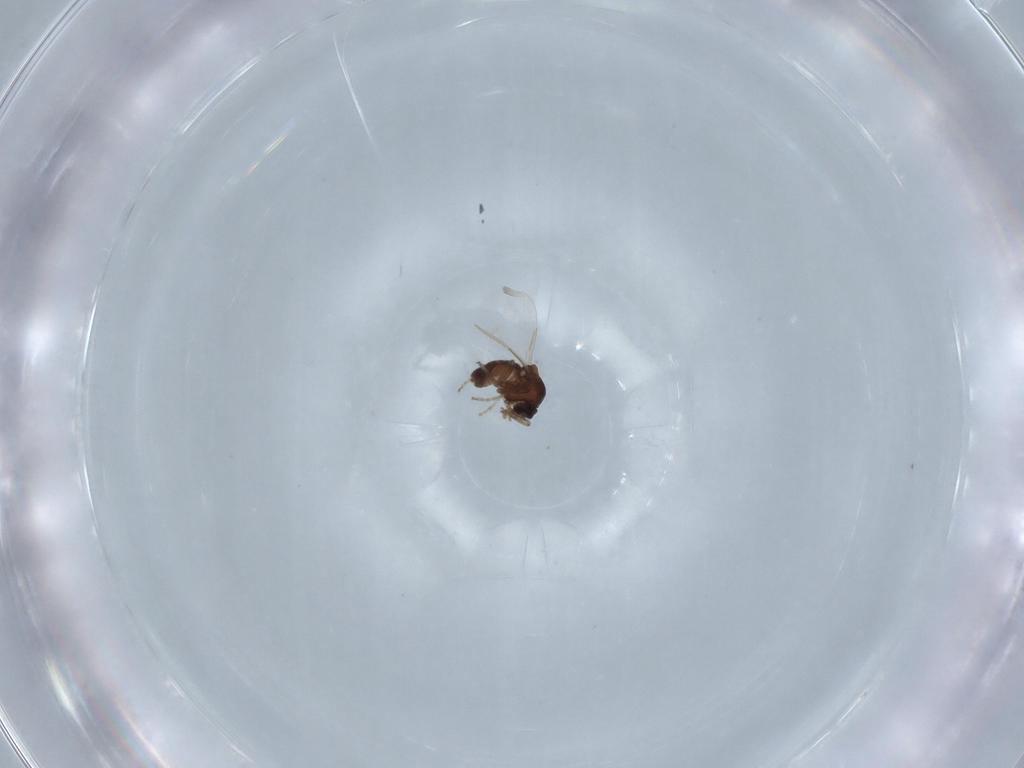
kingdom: Animalia
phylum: Arthropoda
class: Insecta
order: Diptera
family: Ceratopogonidae
